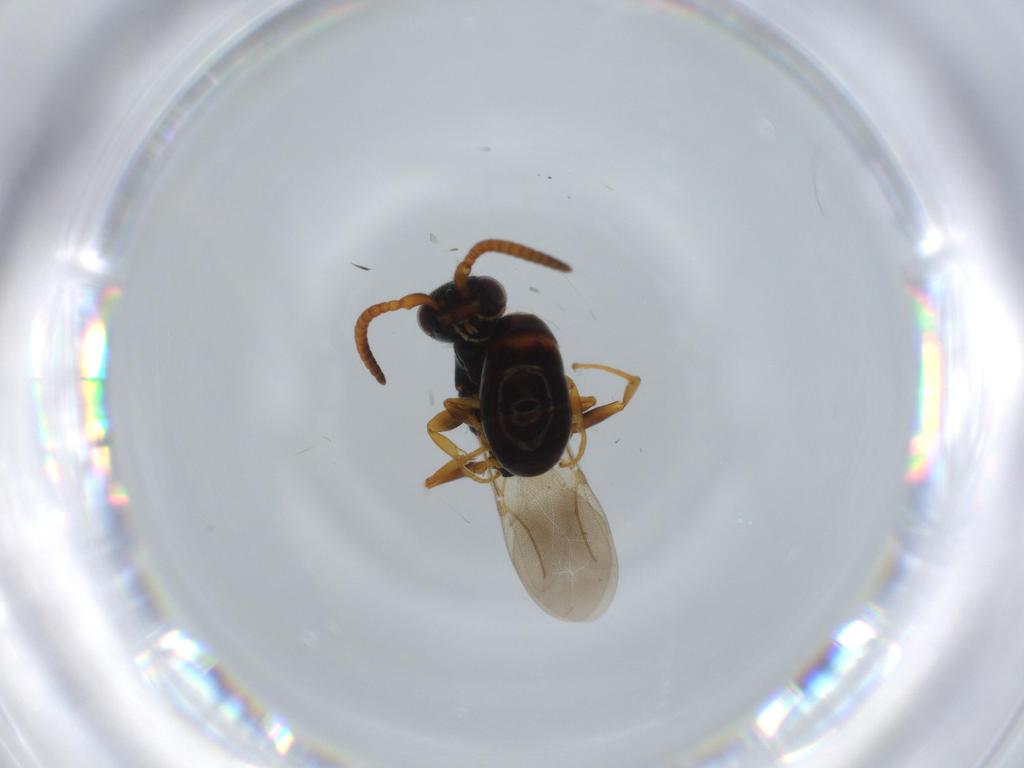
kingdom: Animalia
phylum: Arthropoda
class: Insecta
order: Hymenoptera
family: Bethylidae
